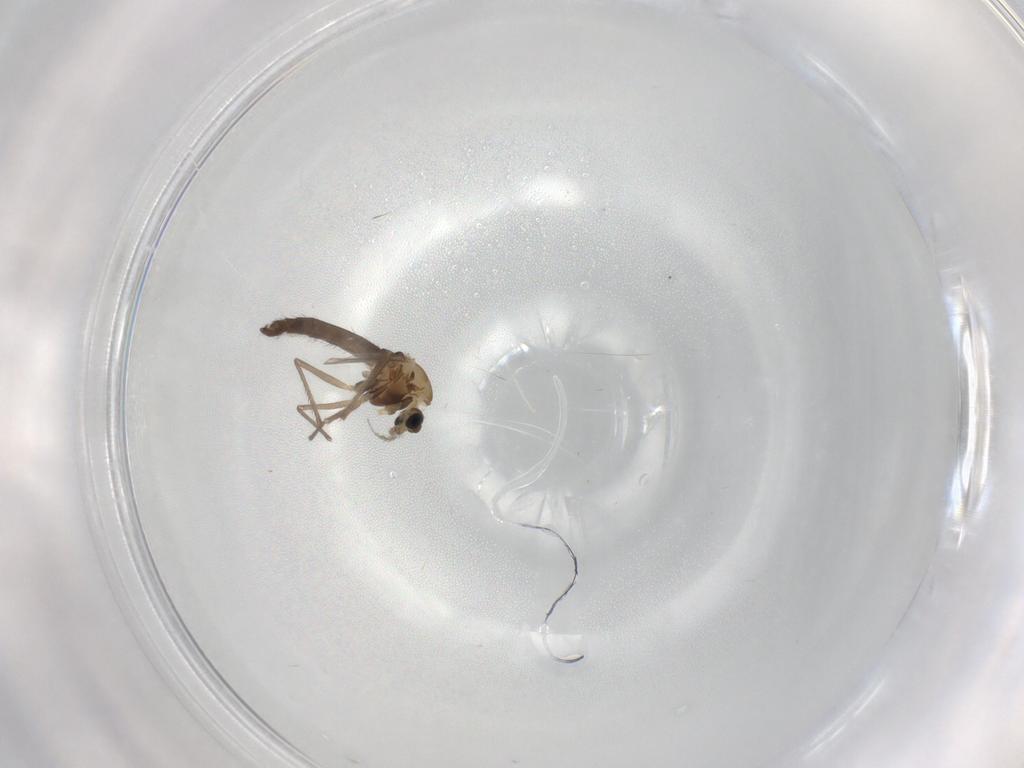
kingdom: Animalia
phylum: Arthropoda
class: Insecta
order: Diptera
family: Chironomidae
